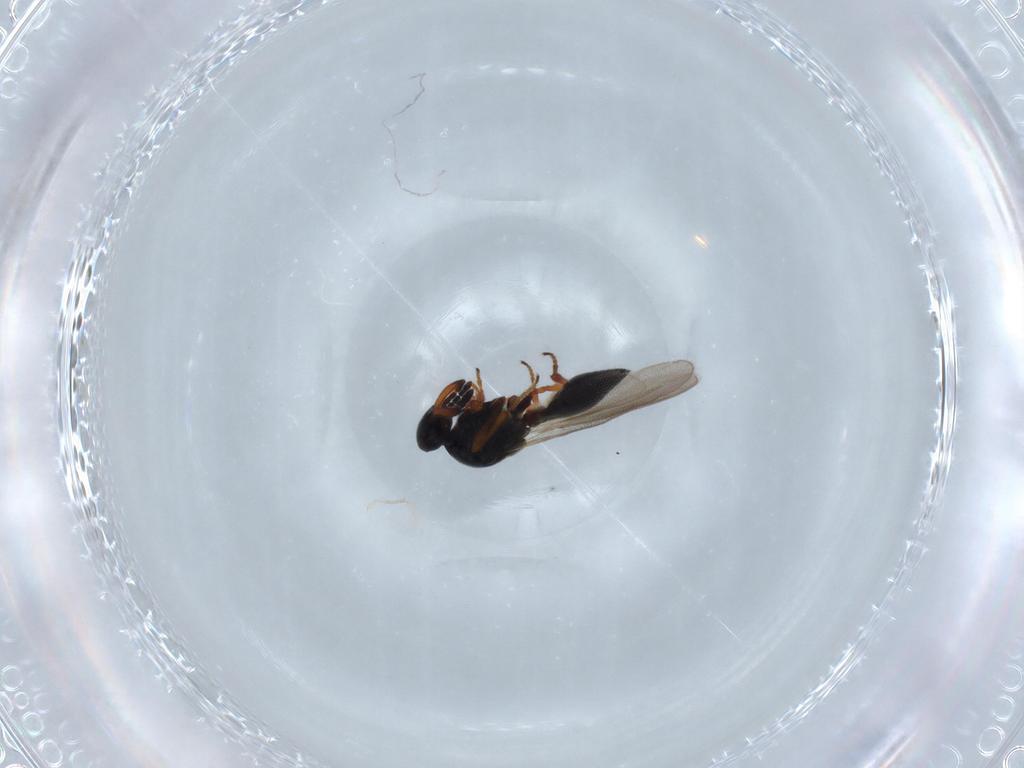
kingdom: Animalia
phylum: Arthropoda
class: Insecta
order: Hymenoptera
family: Platygastridae
